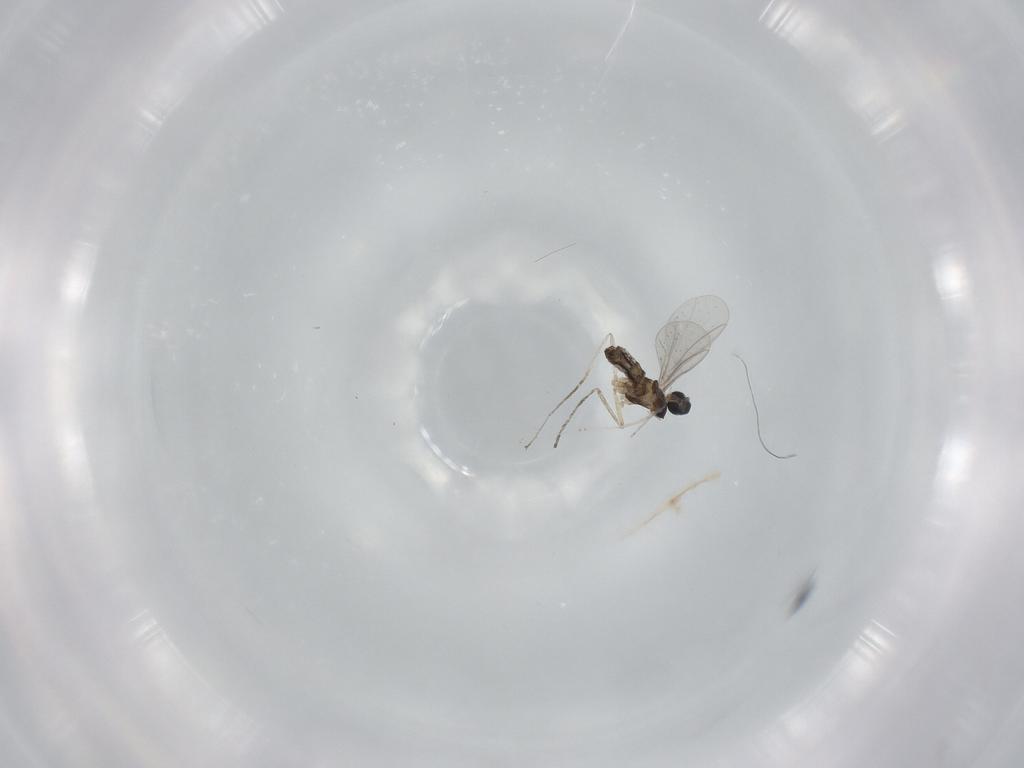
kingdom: Animalia
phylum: Arthropoda
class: Insecta
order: Diptera
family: Cecidomyiidae
